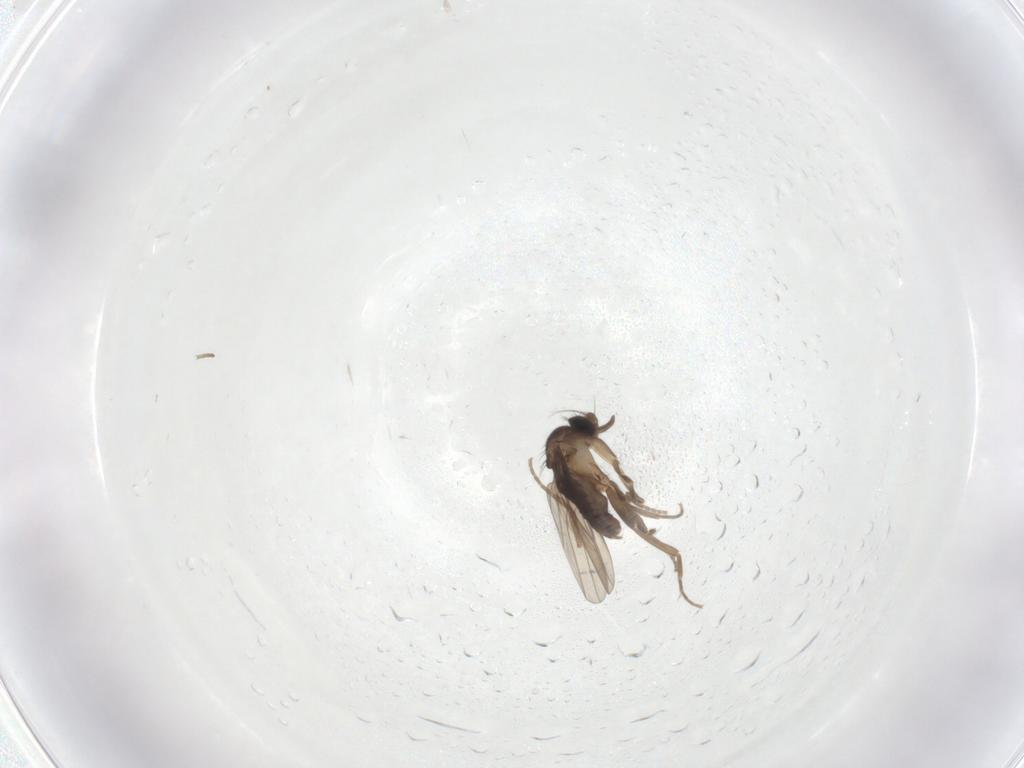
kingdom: Animalia
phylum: Arthropoda
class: Insecta
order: Diptera
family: Phoridae
